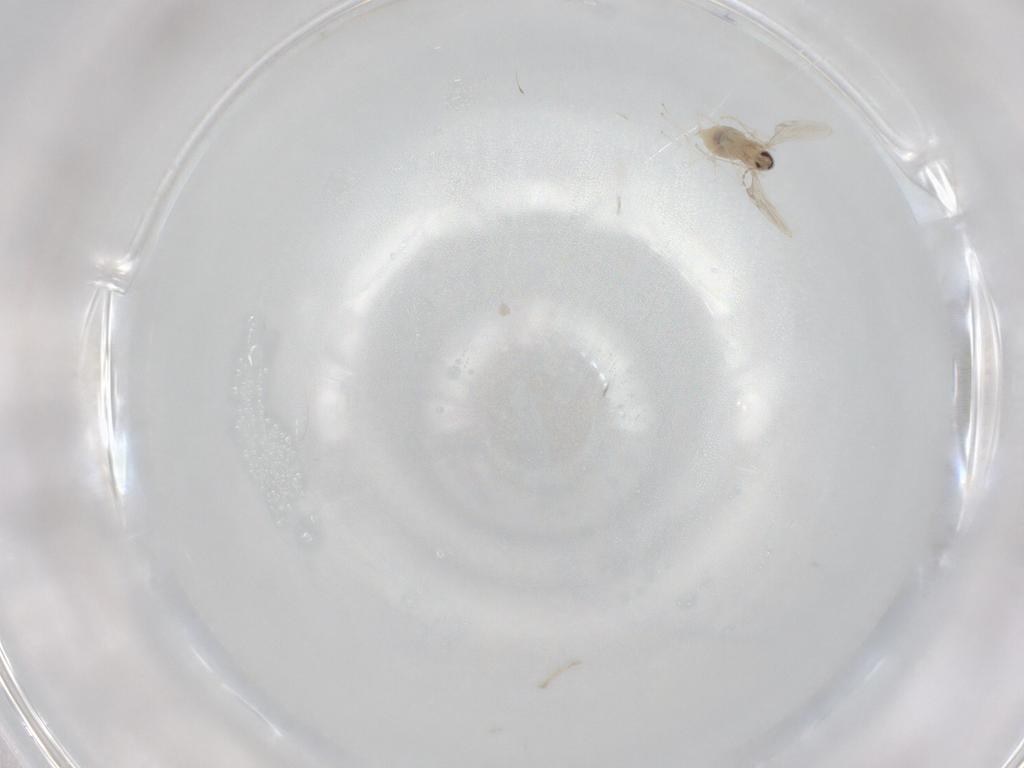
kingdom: Animalia
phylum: Arthropoda
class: Insecta
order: Diptera
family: Cecidomyiidae
